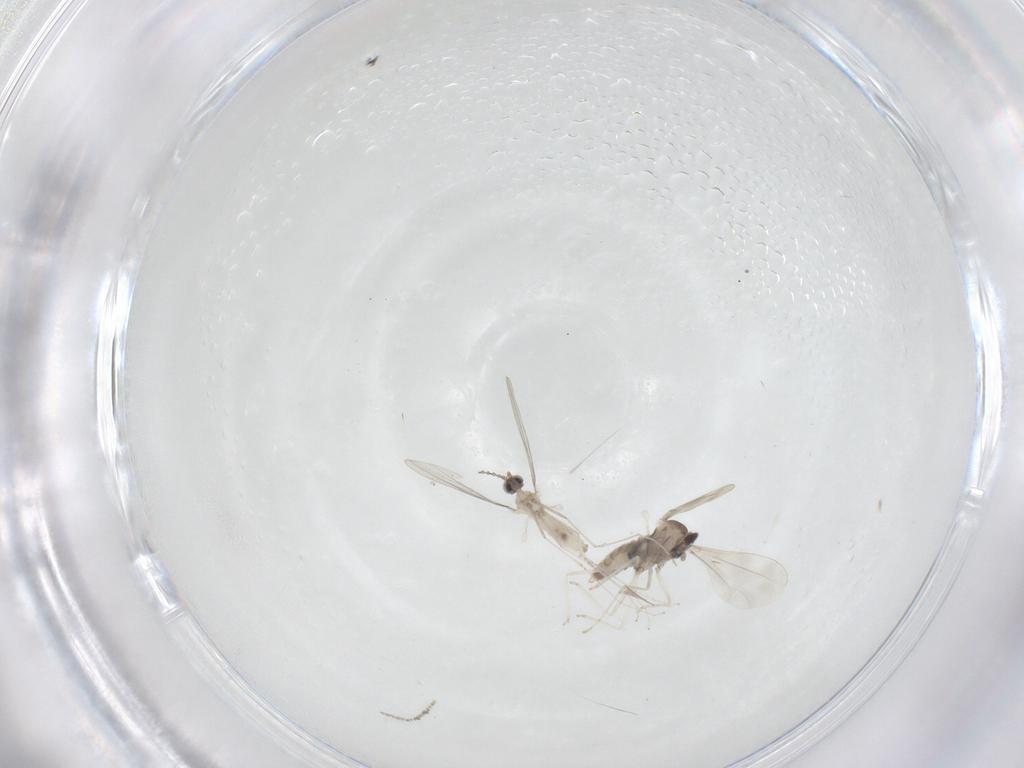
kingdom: Animalia
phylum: Arthropoda
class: Insecta
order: Diptera
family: Cecidomyiidae
